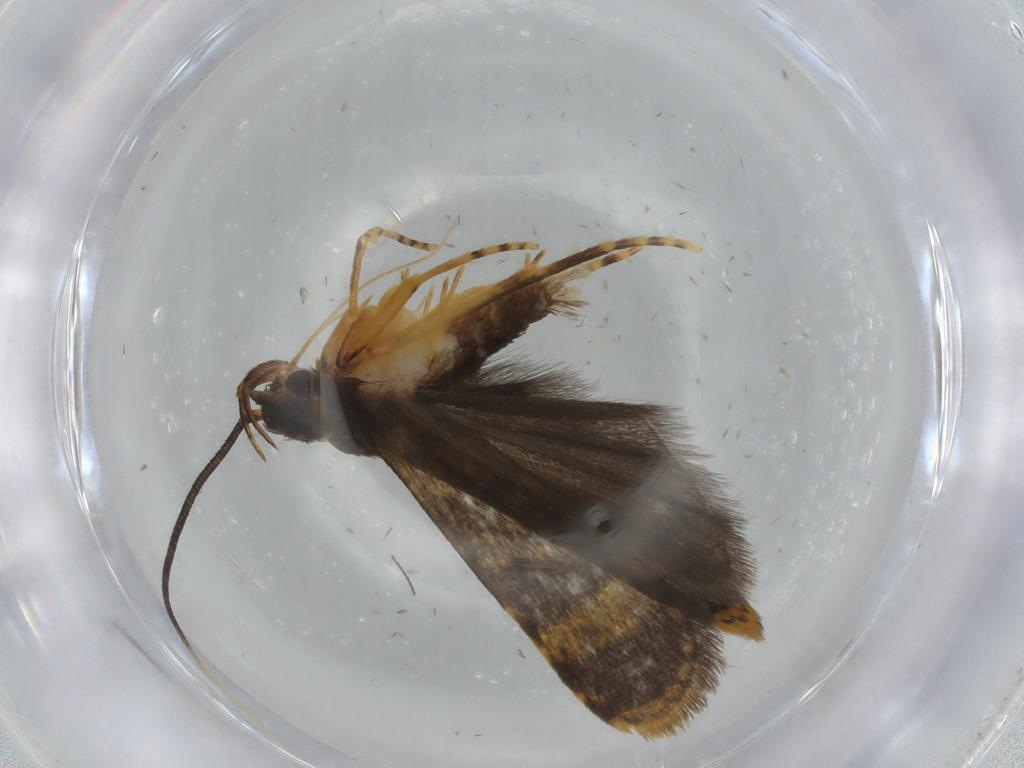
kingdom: Animalia
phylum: Arthropoda
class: Insecta
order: Lepidoptera
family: Cosmopterigidae
